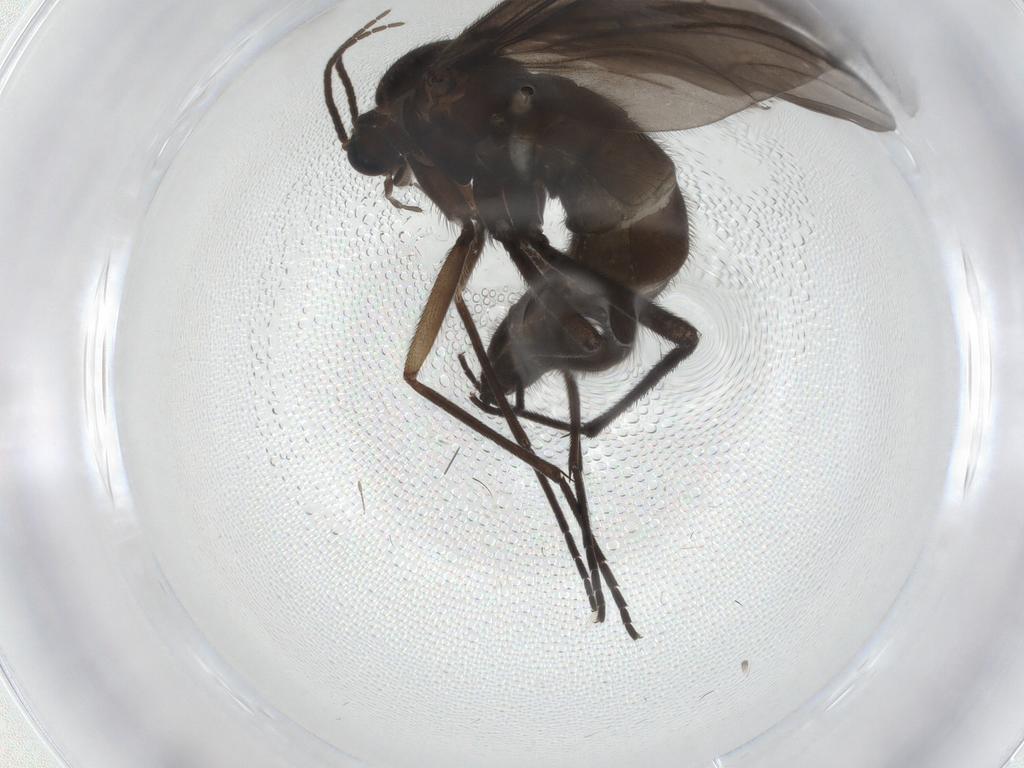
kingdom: Animalia
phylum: Arthropoda
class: Insecta
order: Diptera
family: Sciaridae
